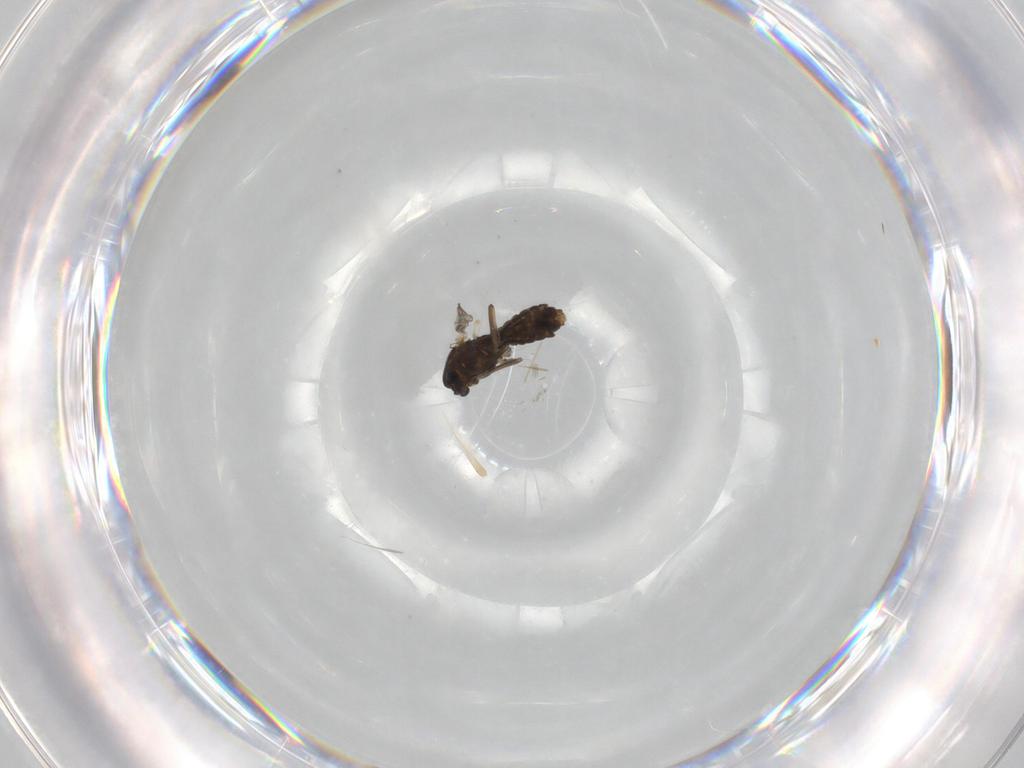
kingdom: Animalia
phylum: Arthropoda
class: Insecta
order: Diptera
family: Chironomidae
